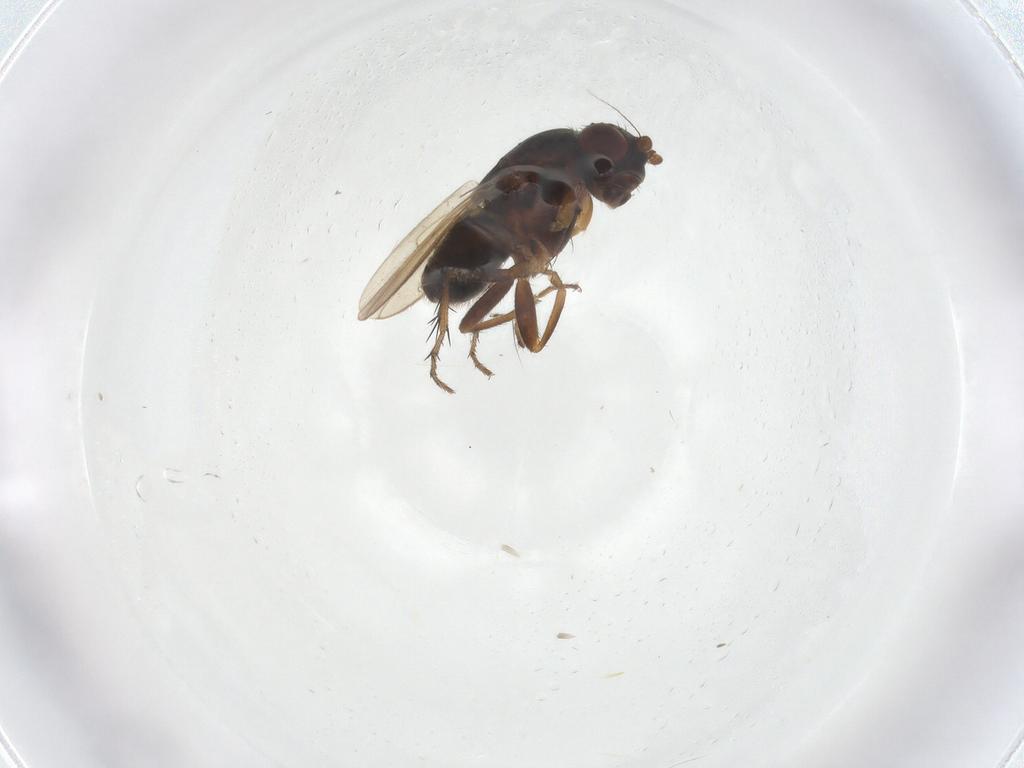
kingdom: Animalia
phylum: Arthropoda
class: Insecta
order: Diptera
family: Sphaeroceridae
